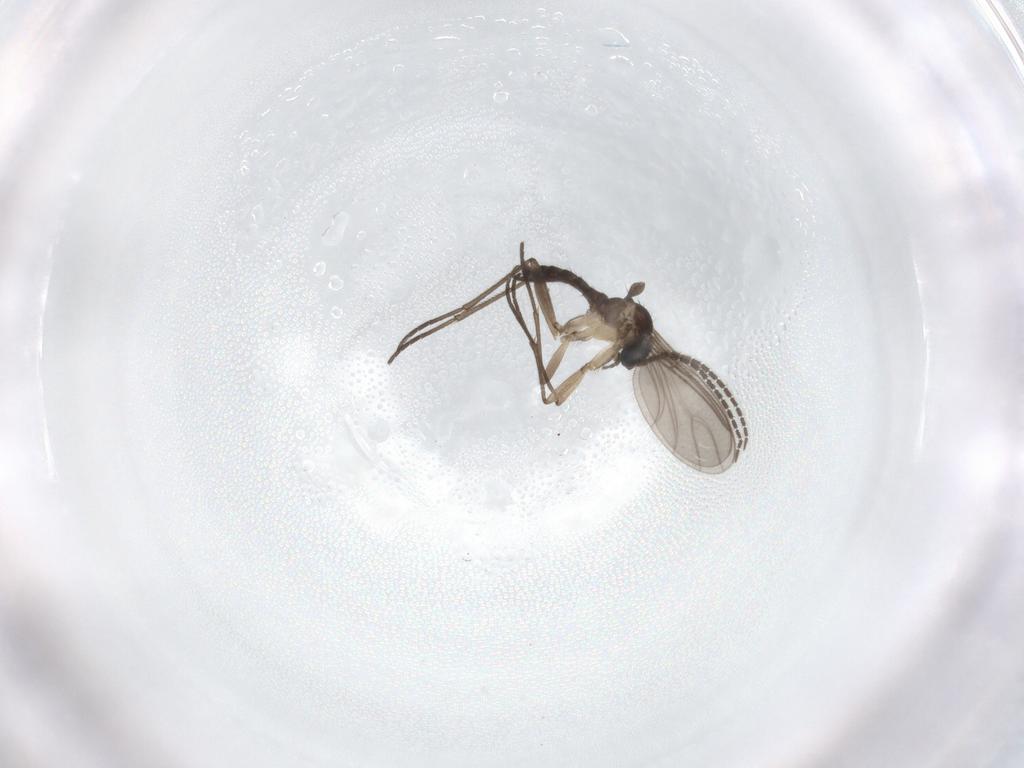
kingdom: Animalia
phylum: Arthropoda
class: Insecta
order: Diptera
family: Sciaridae
